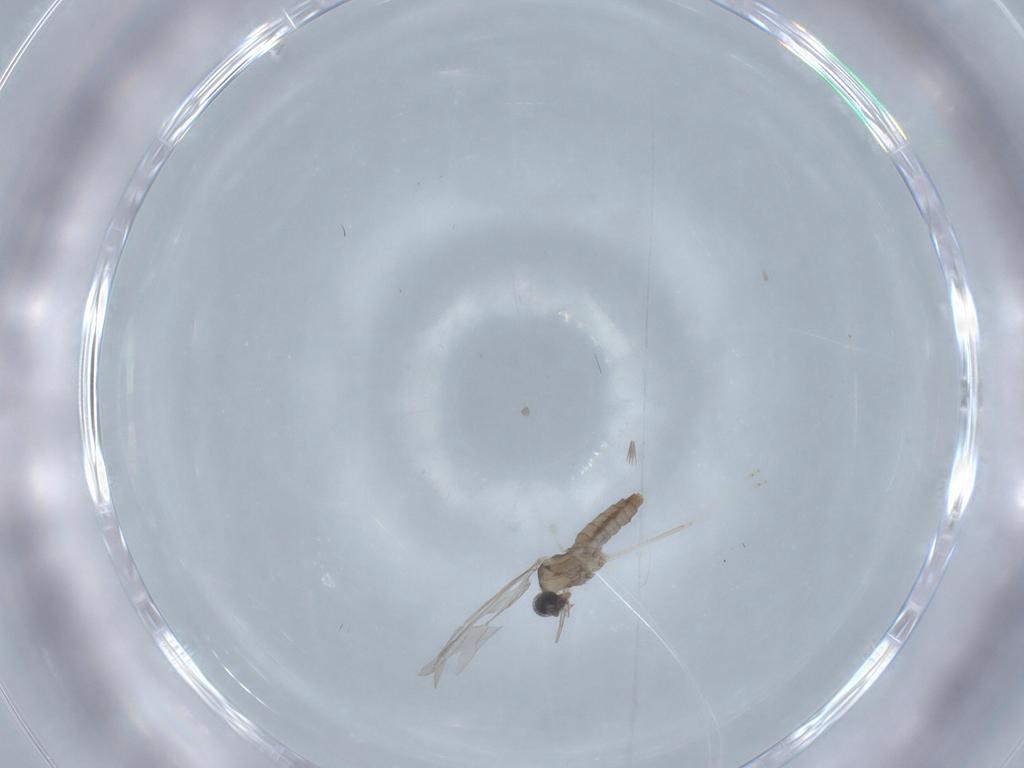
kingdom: Animalia
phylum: Arthropoda
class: Insecta
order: Diptera
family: Cecidomyiidae
